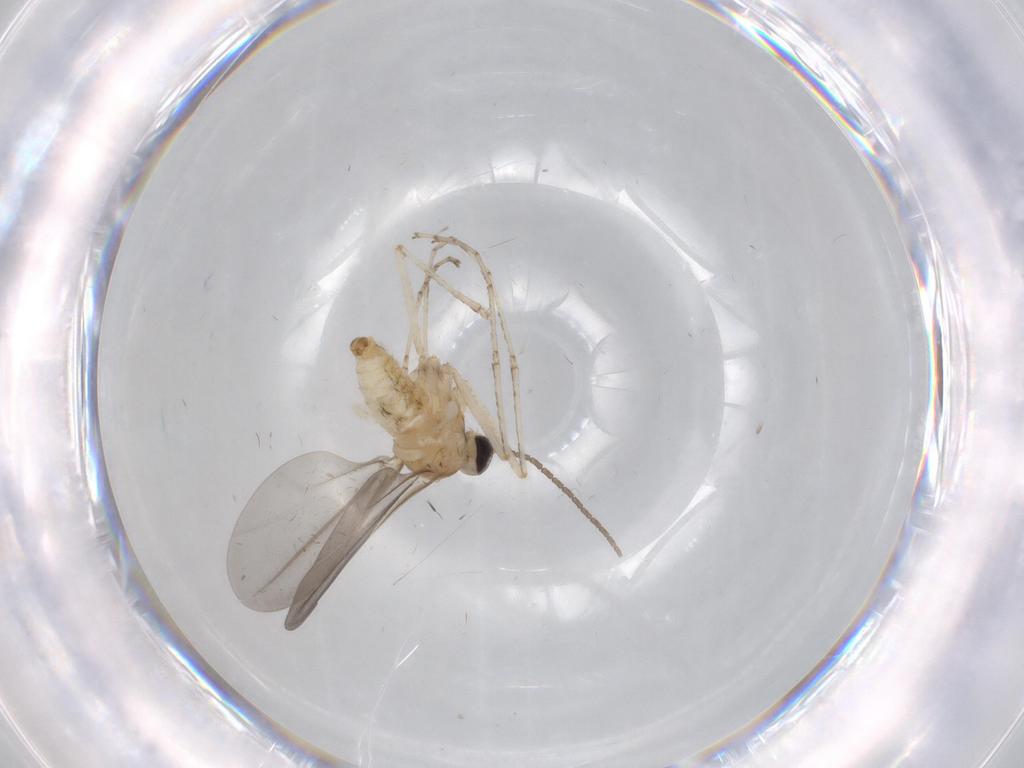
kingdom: Animalia
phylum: Arthropoda
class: Insecta
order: Diptera
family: Cecidomyiidae
